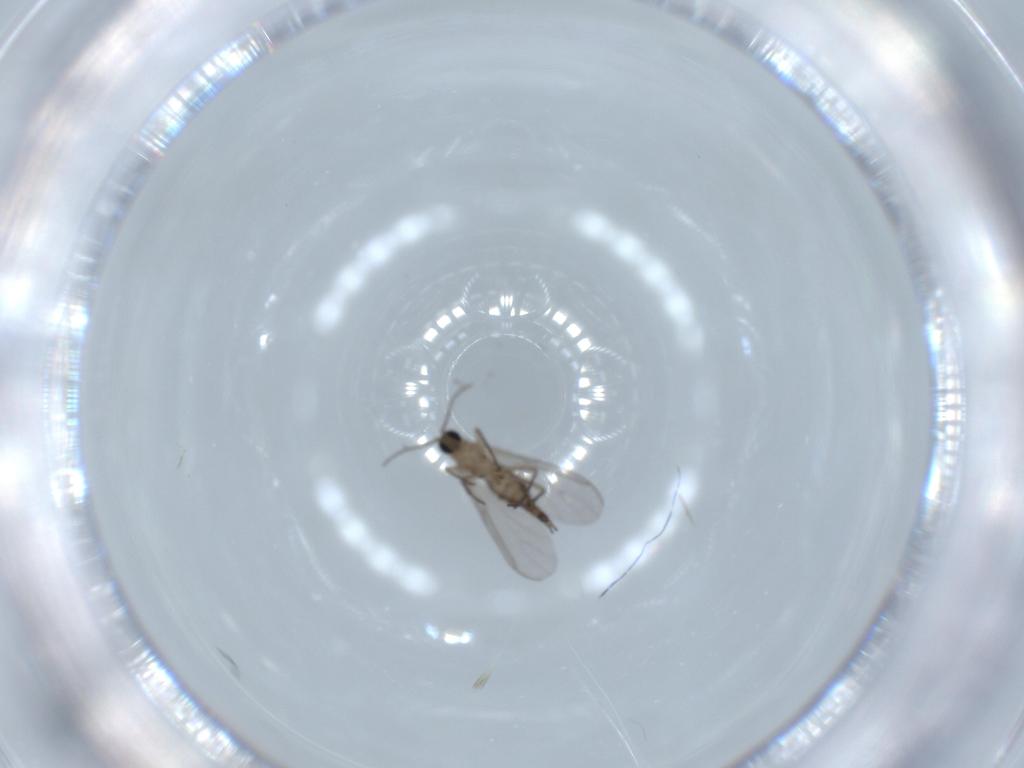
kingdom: Animalia
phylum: Arthropoda
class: Insecta
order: Diptera
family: Sciaridae
